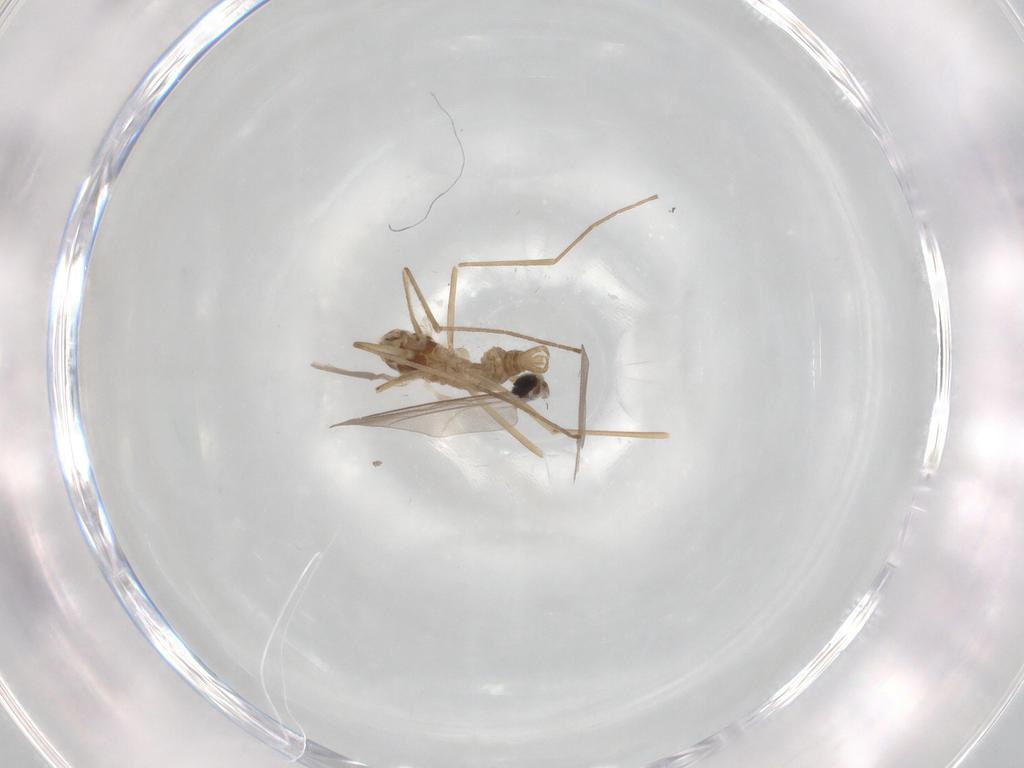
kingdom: Animalia
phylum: Arthropoda
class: Insecta
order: Diptera
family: Cecidomyiidae
